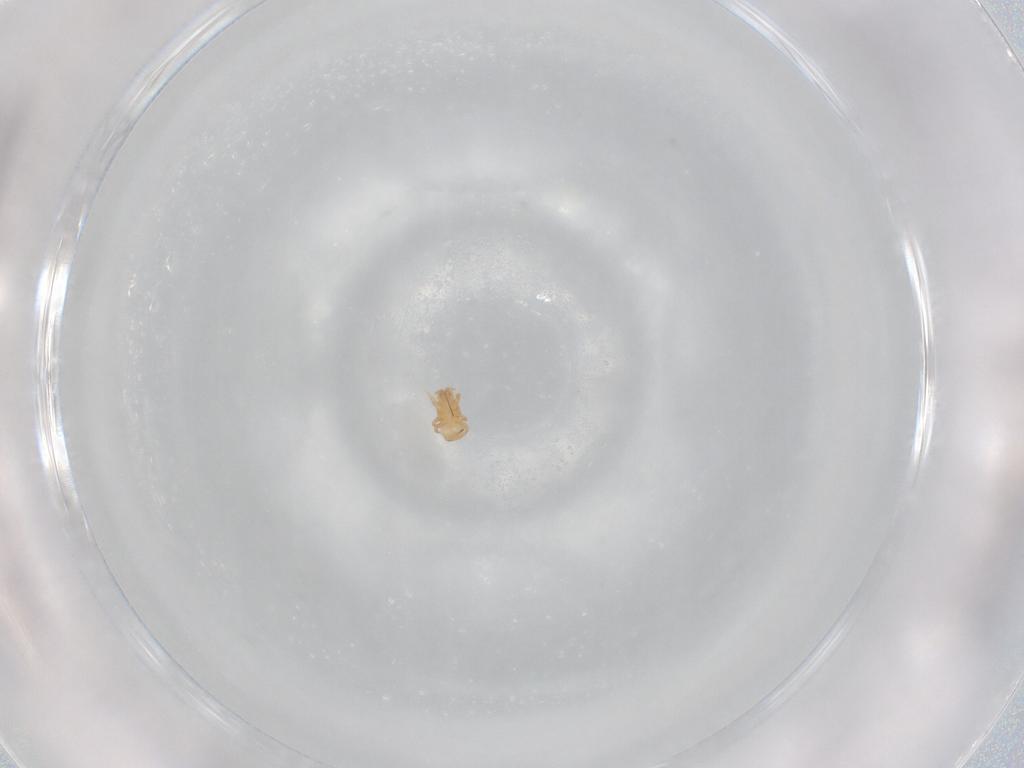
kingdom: Animalia
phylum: Arthropoda
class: Arachnida
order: Mesostigmata
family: Digamasellidae
